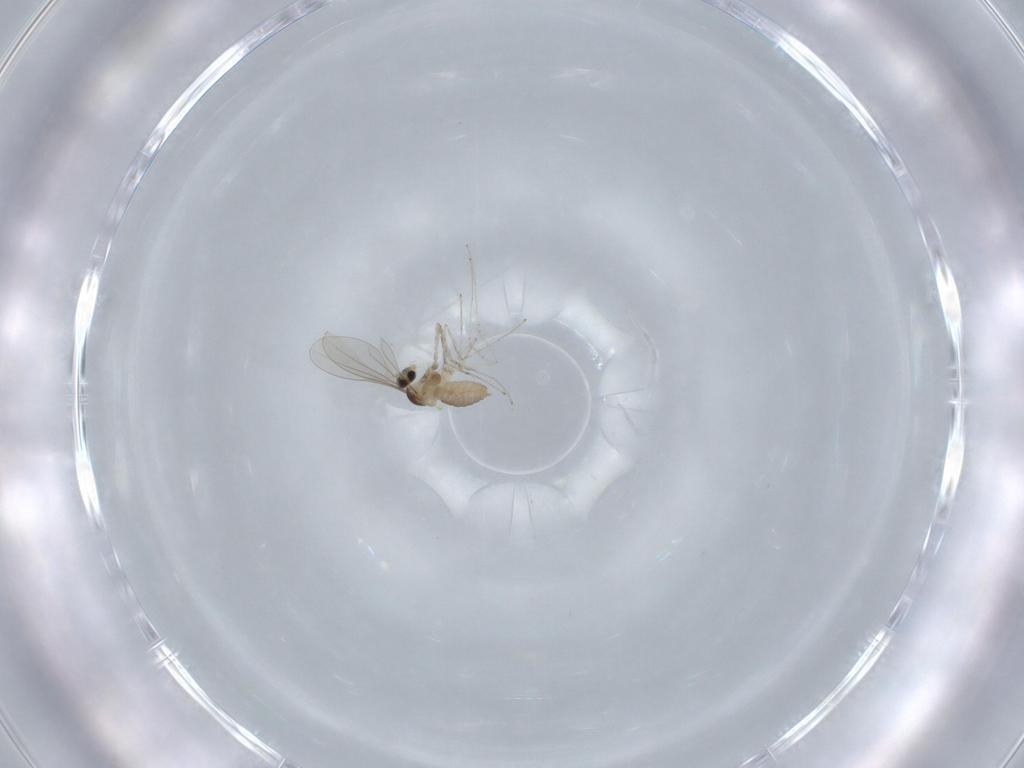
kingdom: Animalia
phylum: Arthropoda
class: Insecta
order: Diptera
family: Cecidomyiidae
